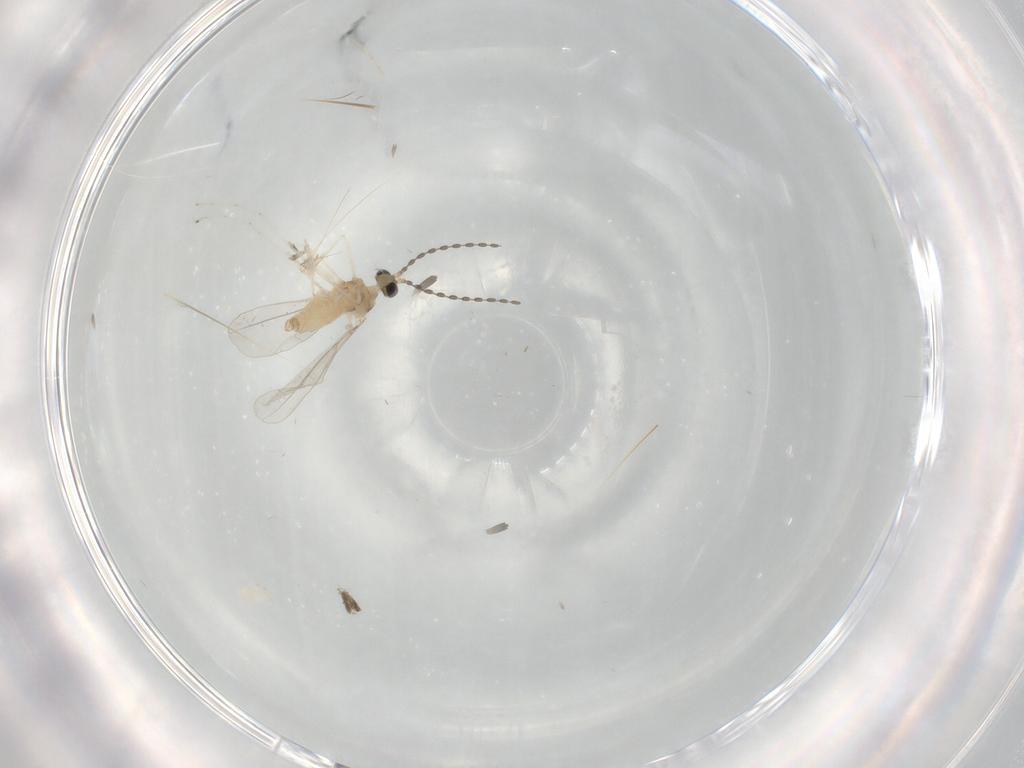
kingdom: Animalia
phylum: Arthropoda
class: Insecta
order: Diptera
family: Cecidomyiidae
